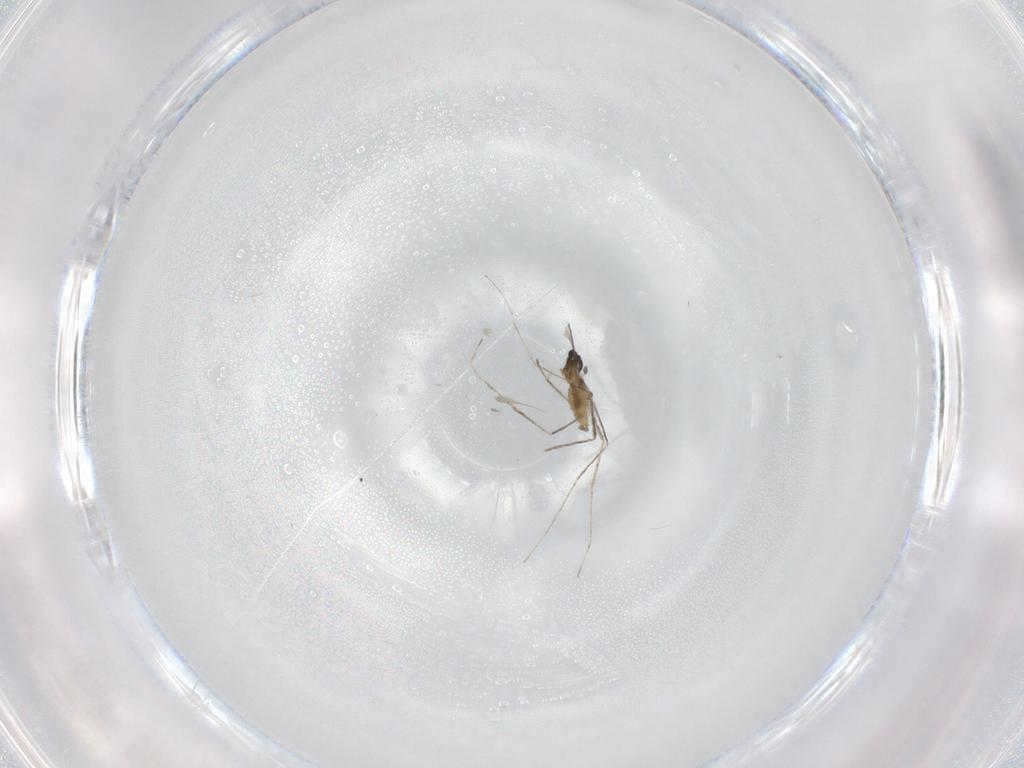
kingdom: Animalia
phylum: Arthropoda
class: Insecta
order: Diptera
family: Cecidomyiidae
